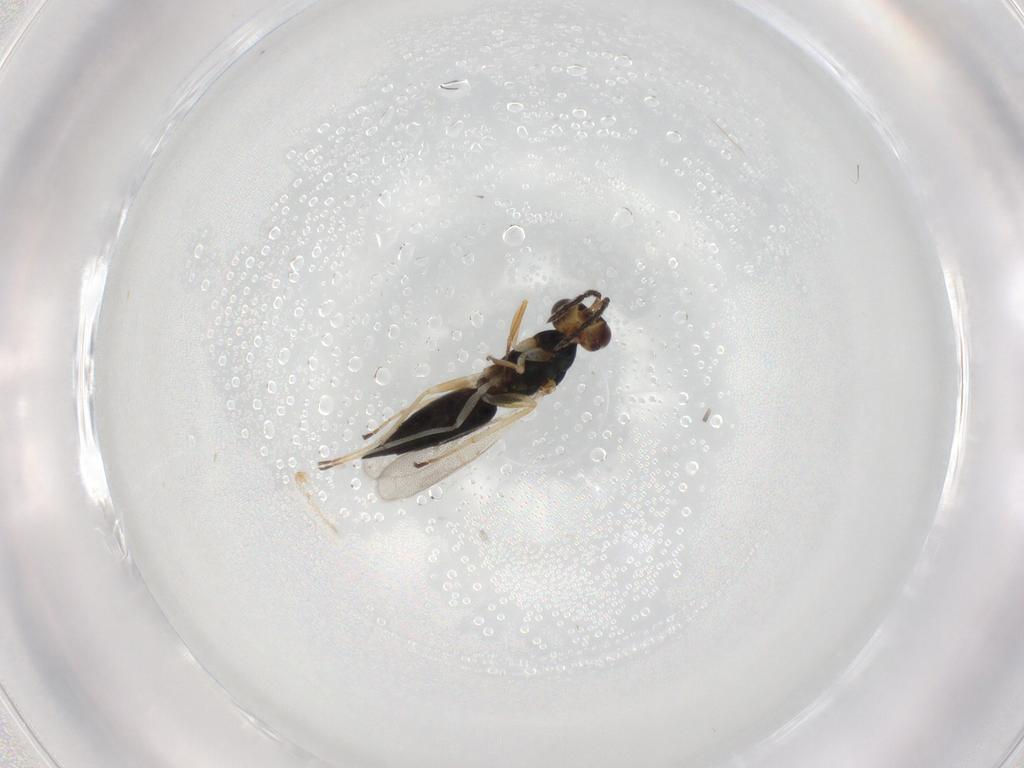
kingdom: Animalia
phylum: Arthropoda
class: Insecta
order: Hymenoptera
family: Eulophidae
